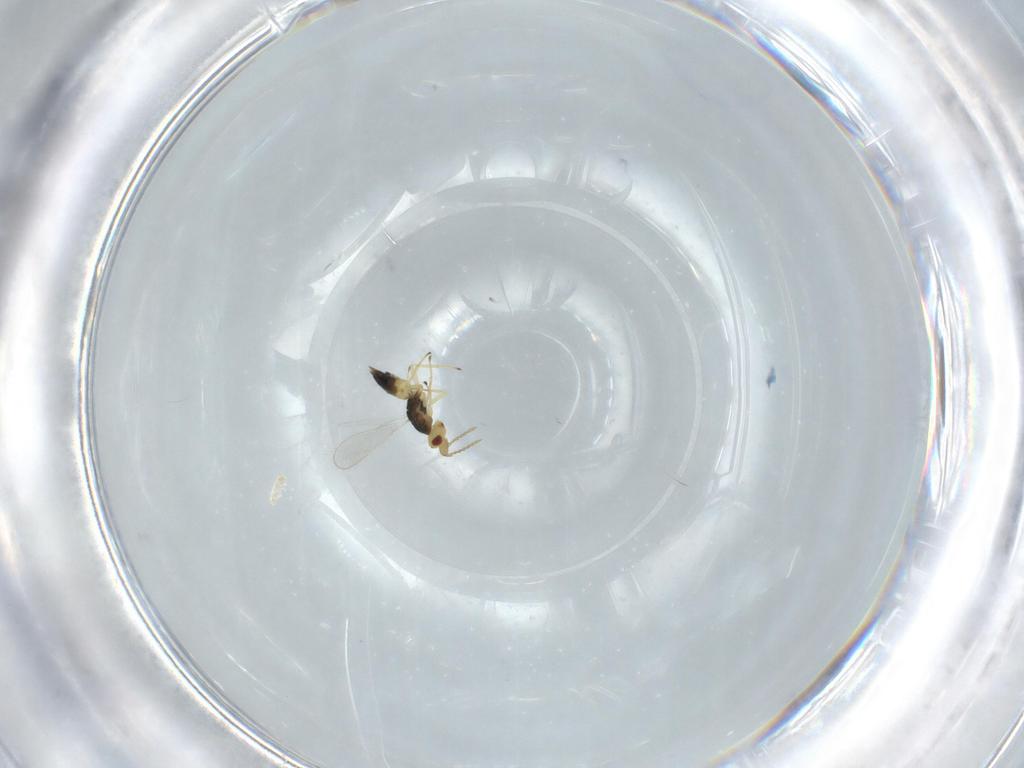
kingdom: Animalia
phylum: Arthropoda
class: Insecta
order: Hymenoptera
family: Eulophidae
